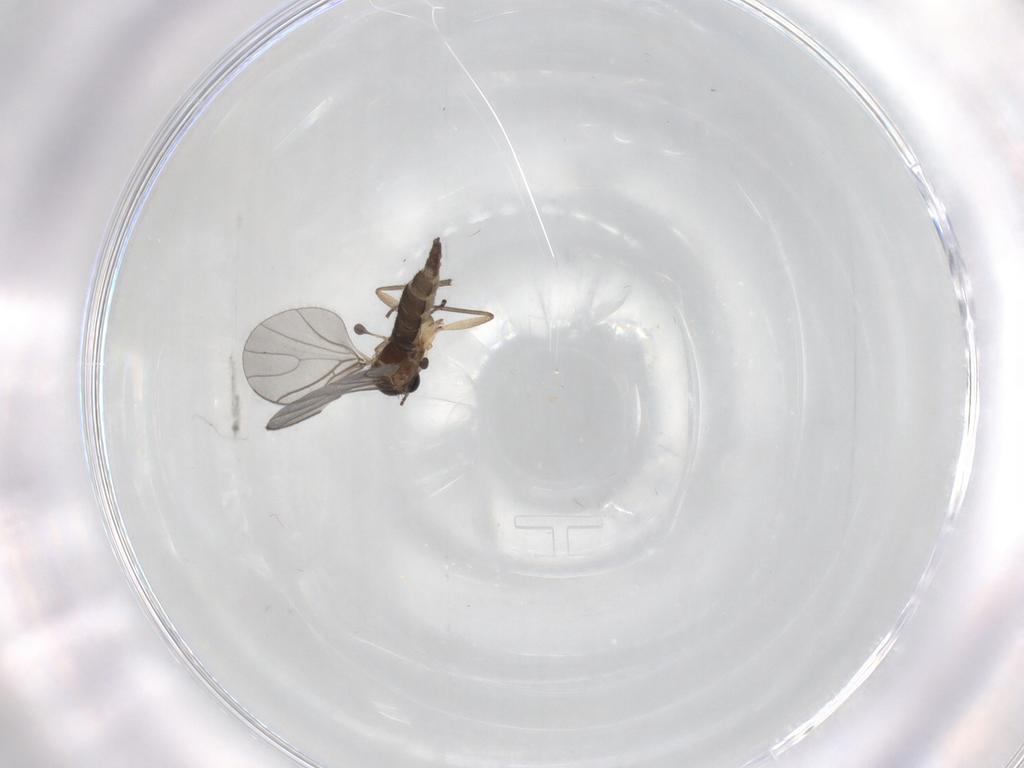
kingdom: Animalia
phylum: Arthropoda
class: Insecta
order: Diptera
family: Sciaridae
